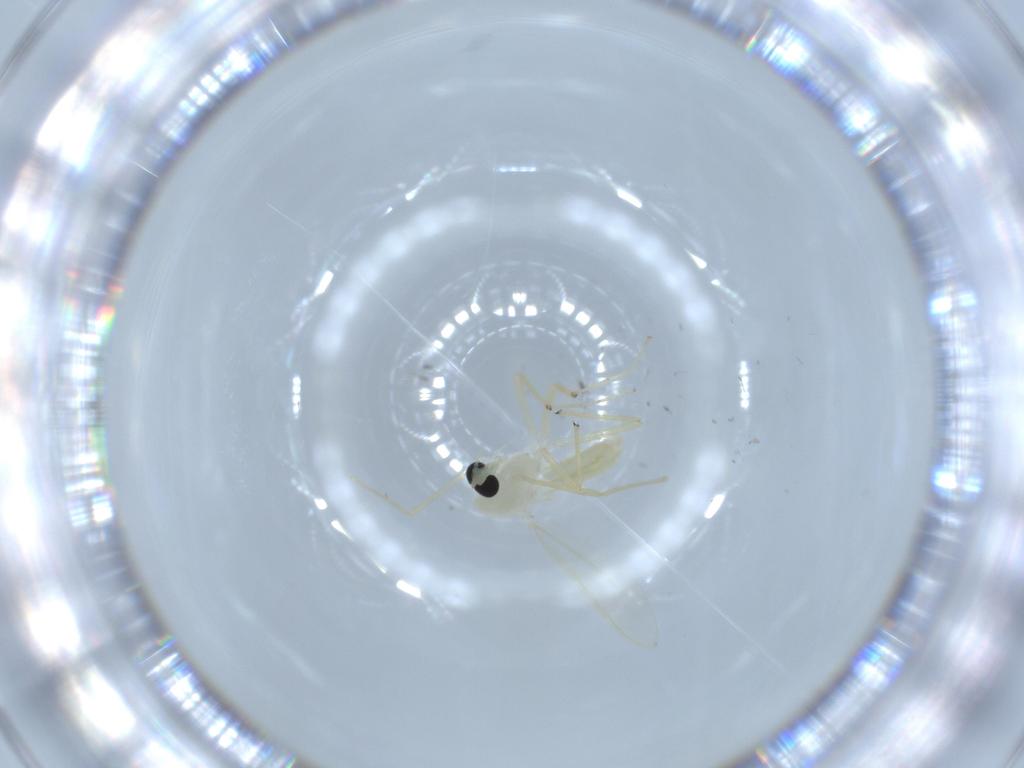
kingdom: Animalia
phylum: Arthropoda
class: Insecta
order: Diptera
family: Chironomidae
